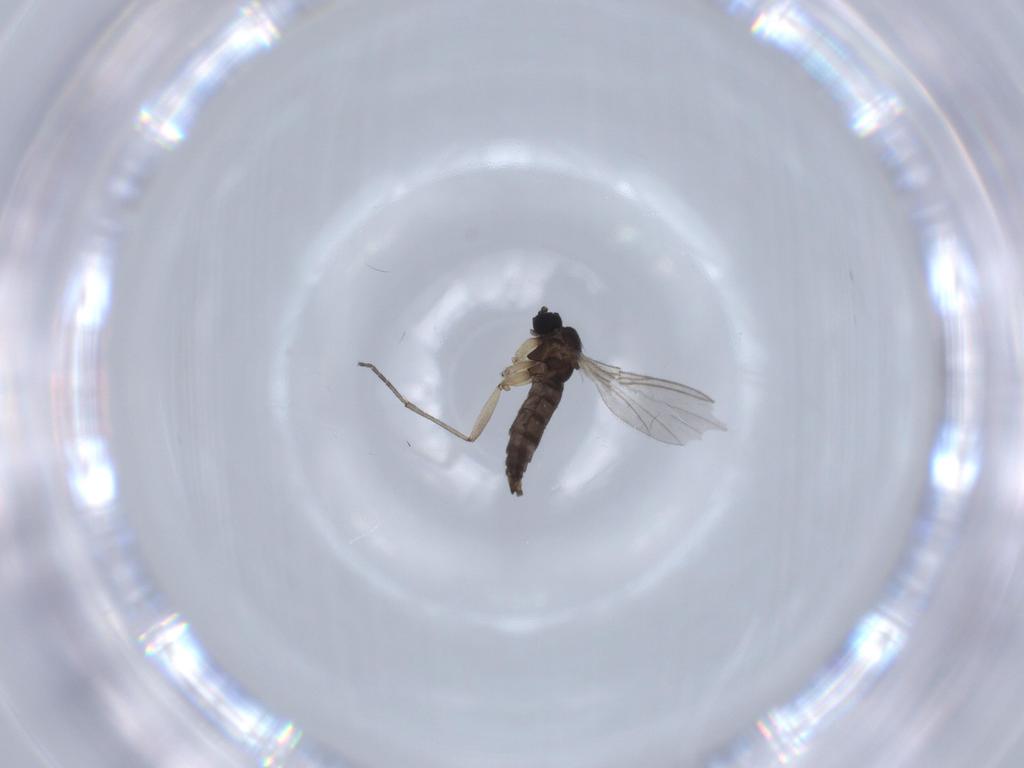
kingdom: Animalia
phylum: Arthropoda
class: Insecta
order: Diptera
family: Sciaridae
